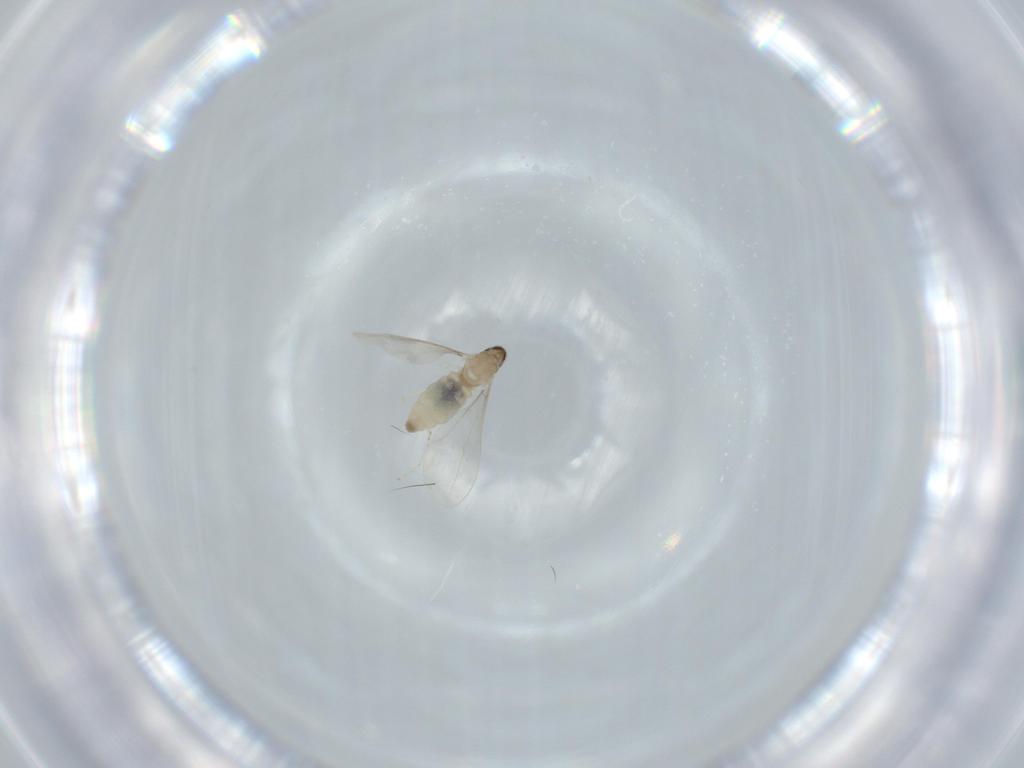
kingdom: Animalia
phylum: Arthropoda
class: Insecta
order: Diptera
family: Cecidomyiidae
